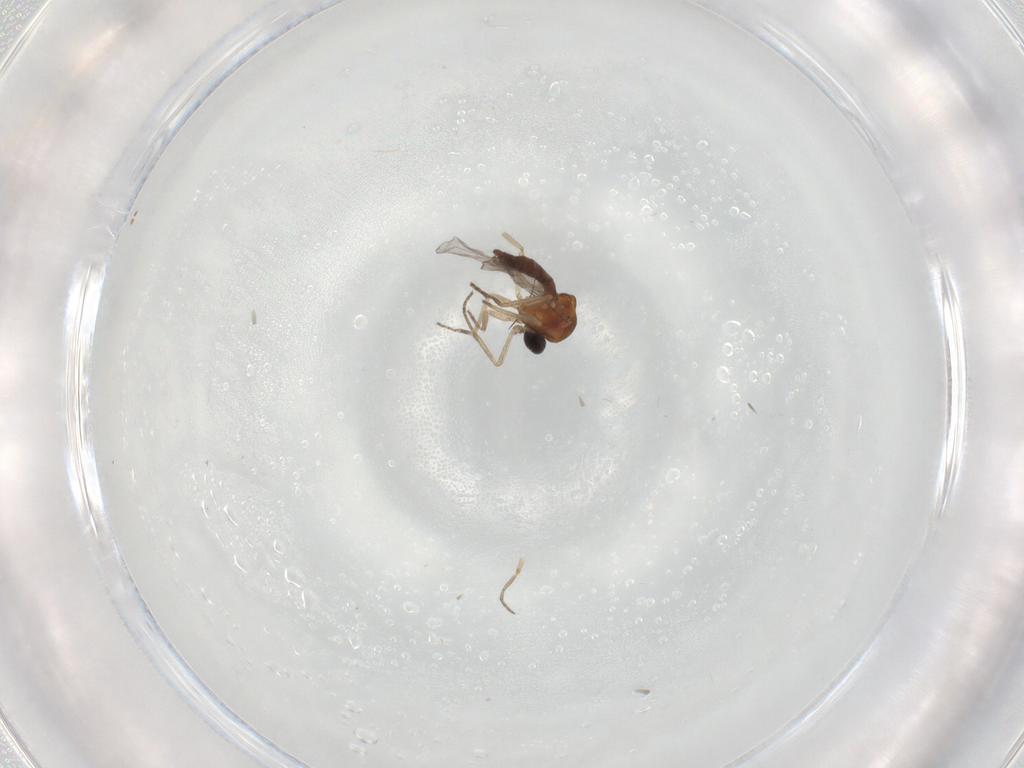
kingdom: Animalia
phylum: Arthropoda
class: Insecta
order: Diptera
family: Ceratopogonidae
